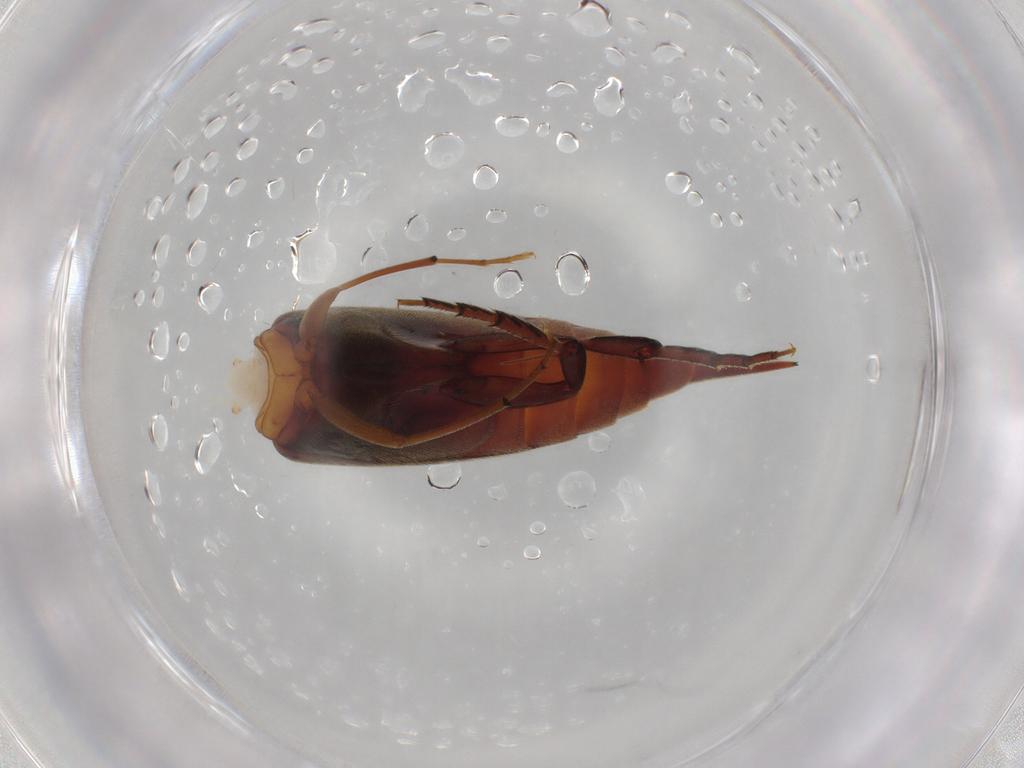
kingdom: Animalia
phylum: Arthropoda
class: Insecta
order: Coleoptera
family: Mordellidae
